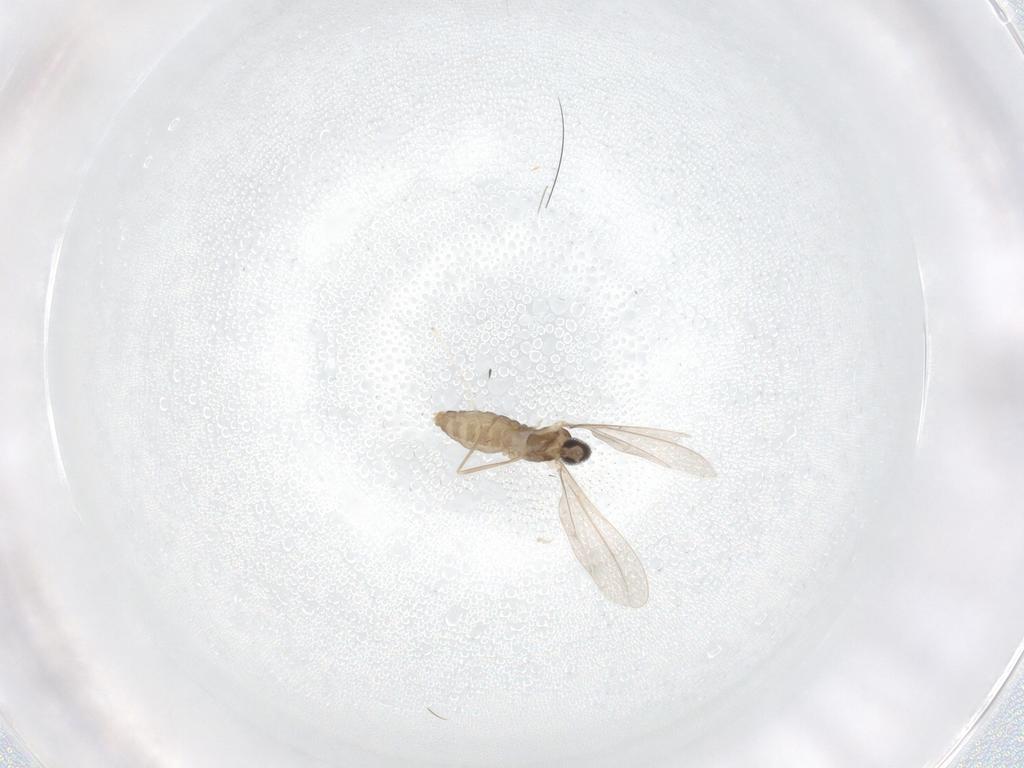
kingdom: Animalia
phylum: Arthropoda
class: Insecta
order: Diptera
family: Cecidomyiidae
